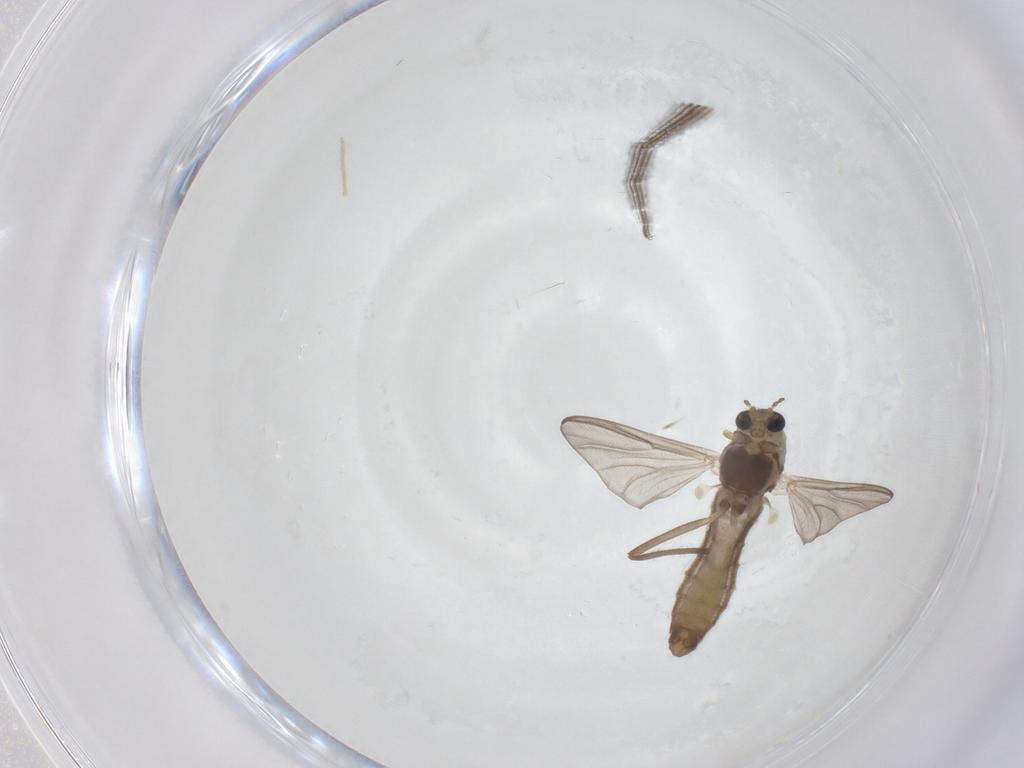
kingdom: Animalia
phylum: Arthropoda
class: Insecta
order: Diptera
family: Chironomidae
